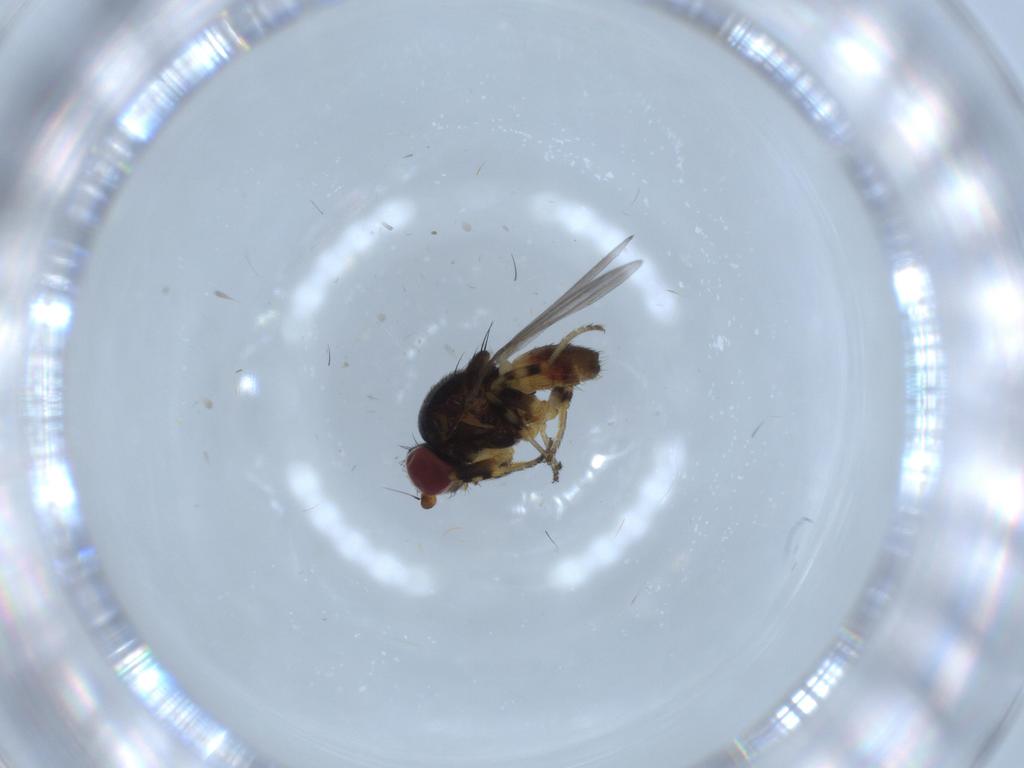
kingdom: Animalia
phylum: Arthropoda
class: Insecta
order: Diptera
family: Chloropidae
